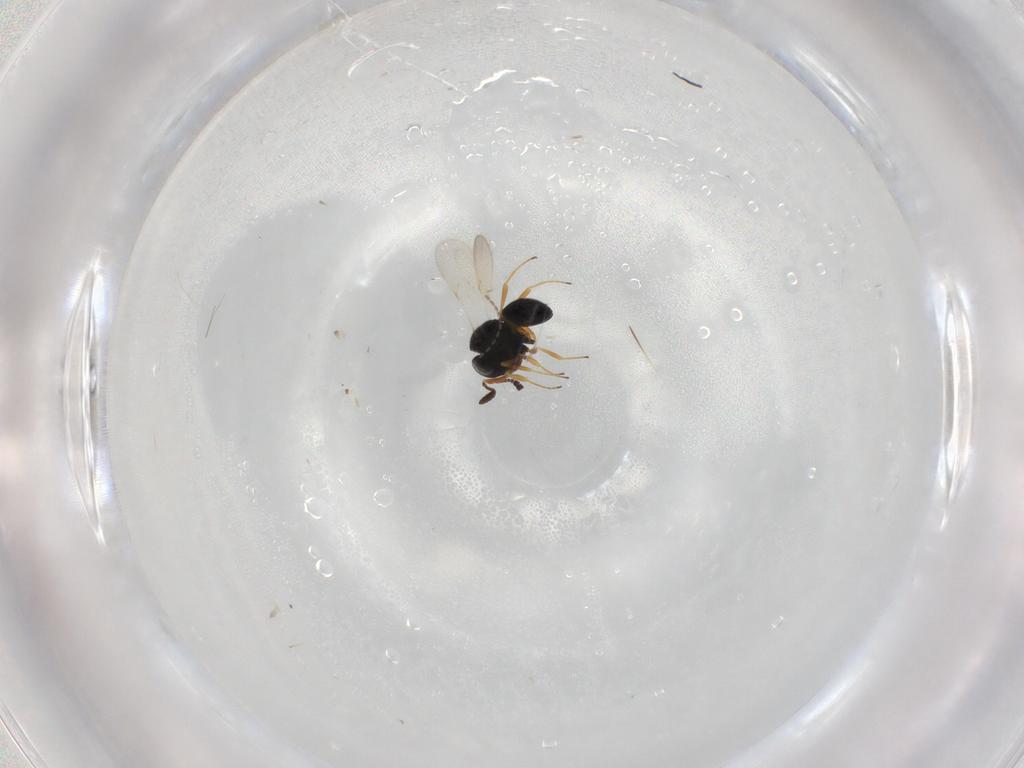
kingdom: Animalia
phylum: Arthropoda
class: Insecta
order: Hymenoptera
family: Scelionidae
